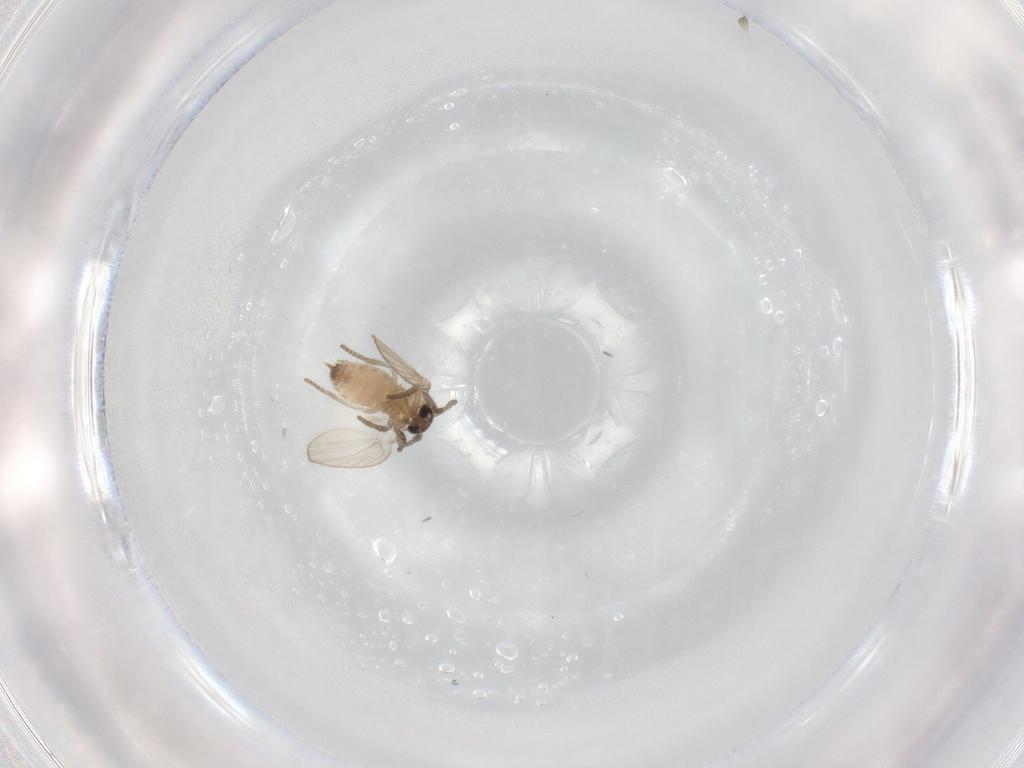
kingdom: Animalia
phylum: Arthropoda
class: Insecta
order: Diptera
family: Psychodidae
